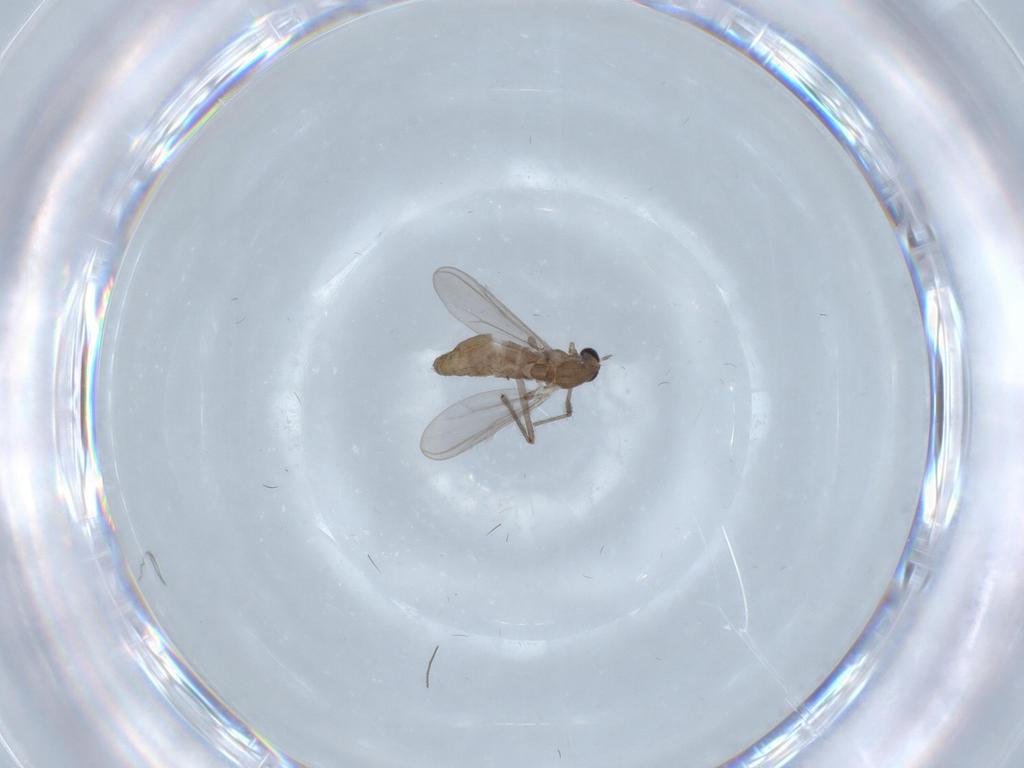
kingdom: Animalia
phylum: Arthropoda
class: Insecta
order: Diptera
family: Chironomidae
